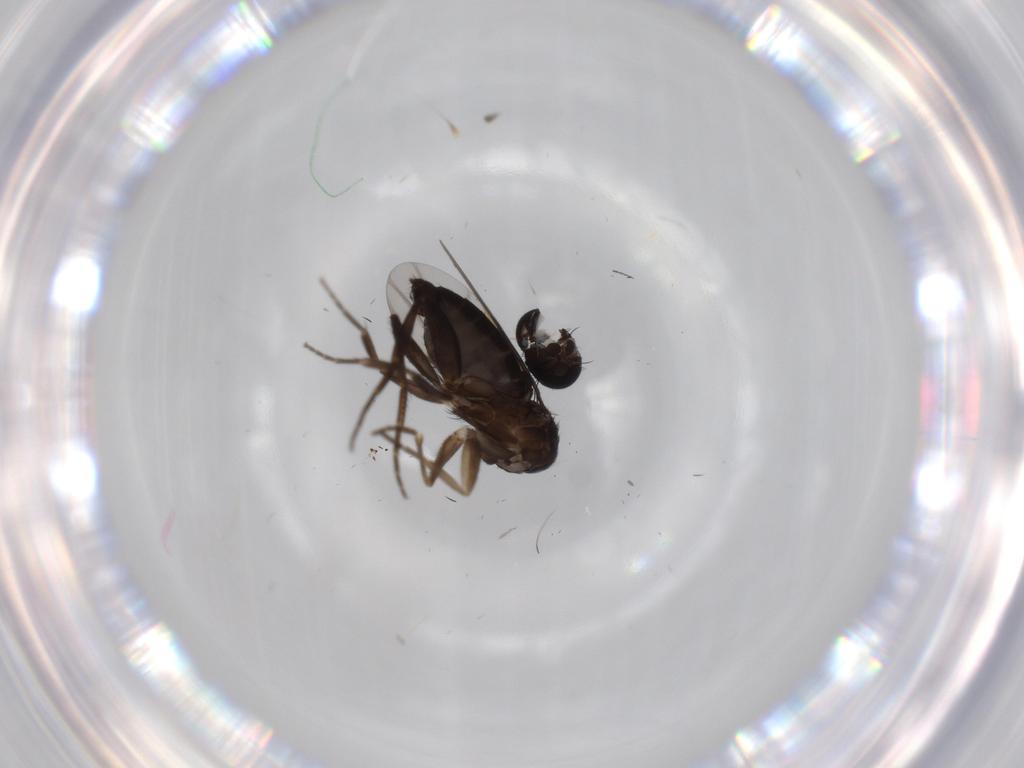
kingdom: Animalia
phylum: Arthropoda
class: Insecta
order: Diptera
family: Phoridae
